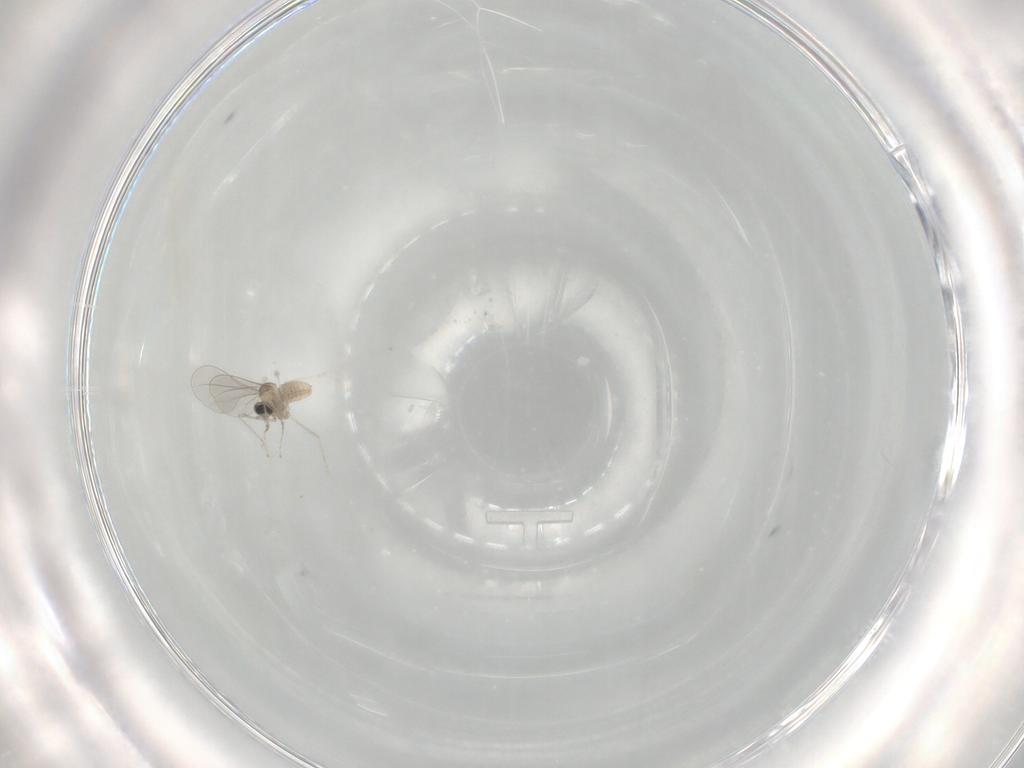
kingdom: Animalia
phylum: Arthropoda
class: Insecta
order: Diptera
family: Cecidomyiidae
